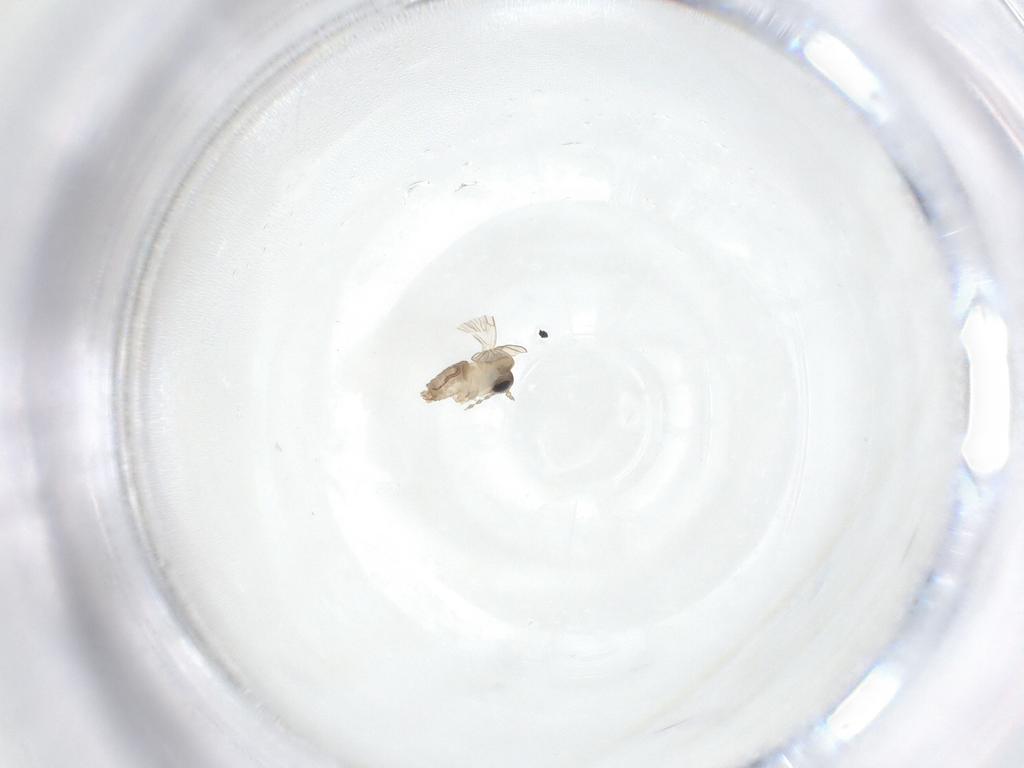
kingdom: Animalia
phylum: Arthropoda
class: Insecta
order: Diptera
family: Psychodidae
